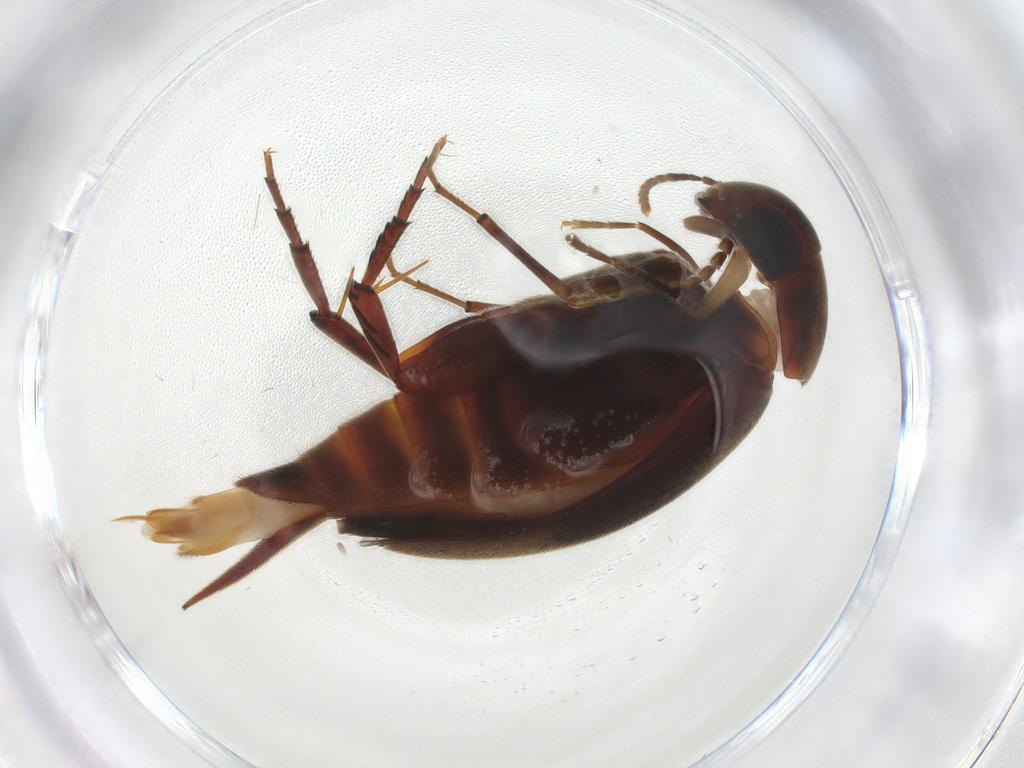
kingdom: Animalia
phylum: Arthropoda
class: Insecta
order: Coleoptera
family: Mordellidae
